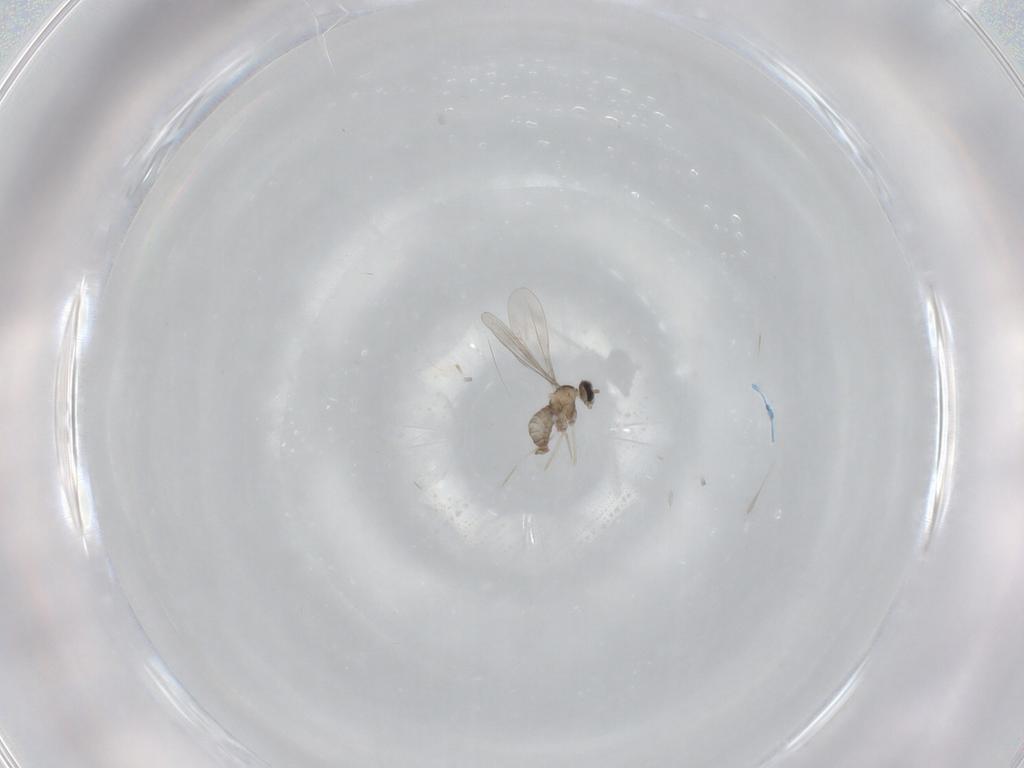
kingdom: Animalia
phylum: Arthropoda
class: Insecta
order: Diptera
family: Cecidomyiidae
